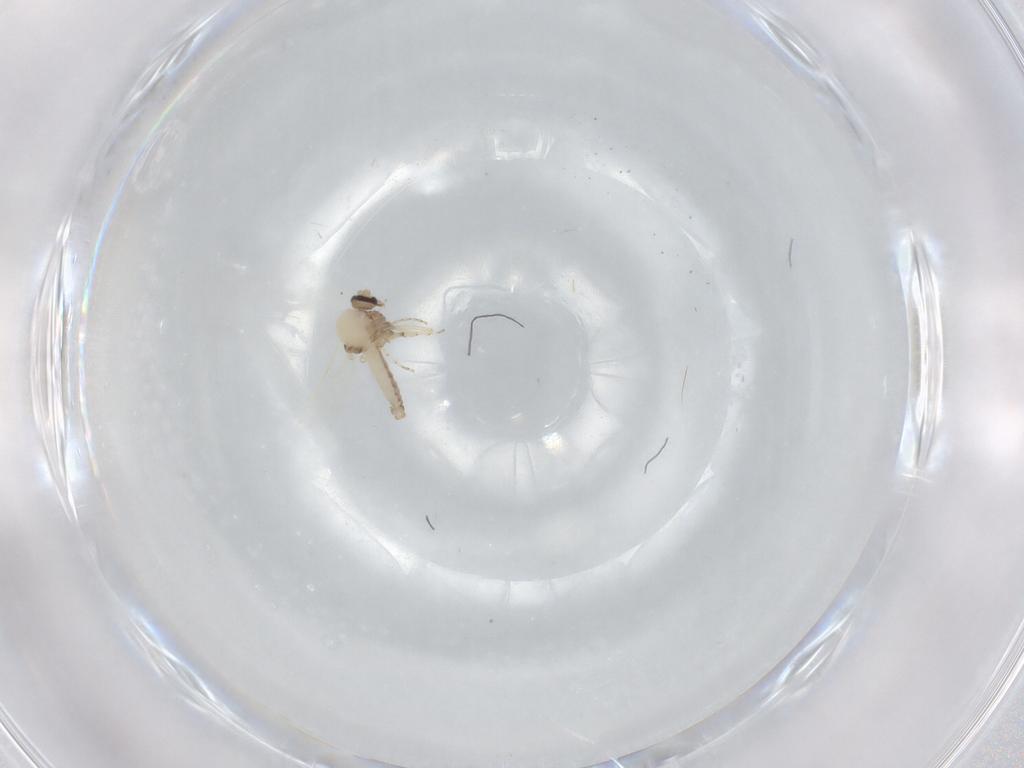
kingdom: Animalia
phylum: Arthropoda
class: Insecta
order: Diptera
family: Ceratopogonidae
